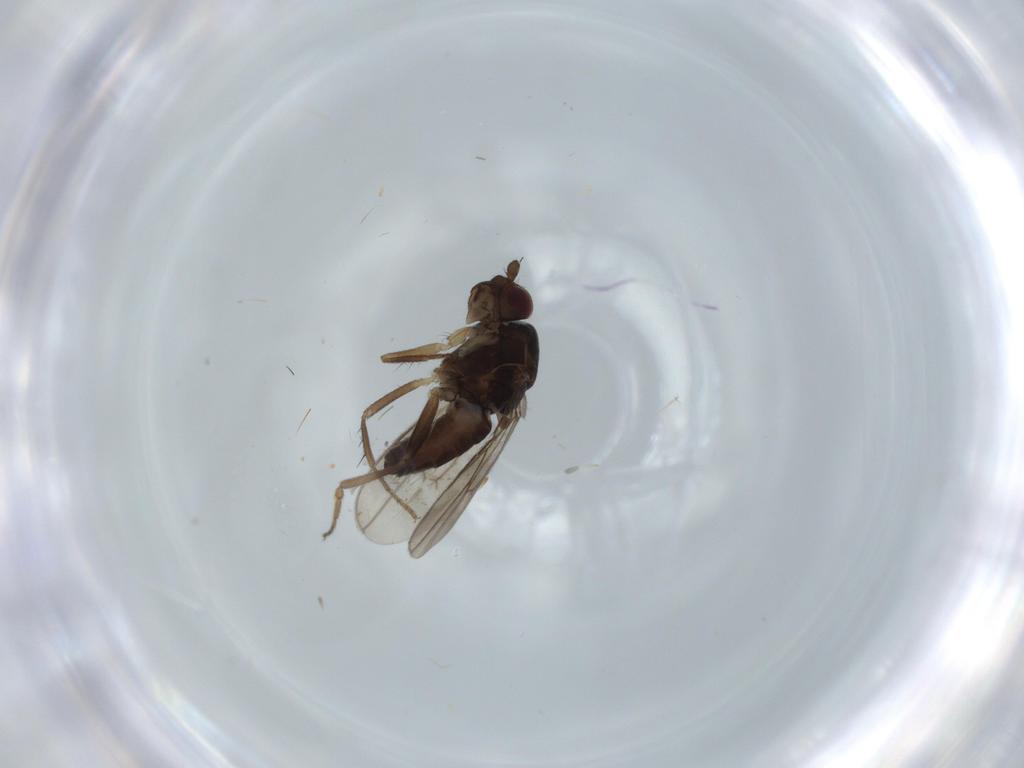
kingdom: Animalia
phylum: Arthropoda
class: Insecta
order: Diptera
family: Sphaeroceridae
